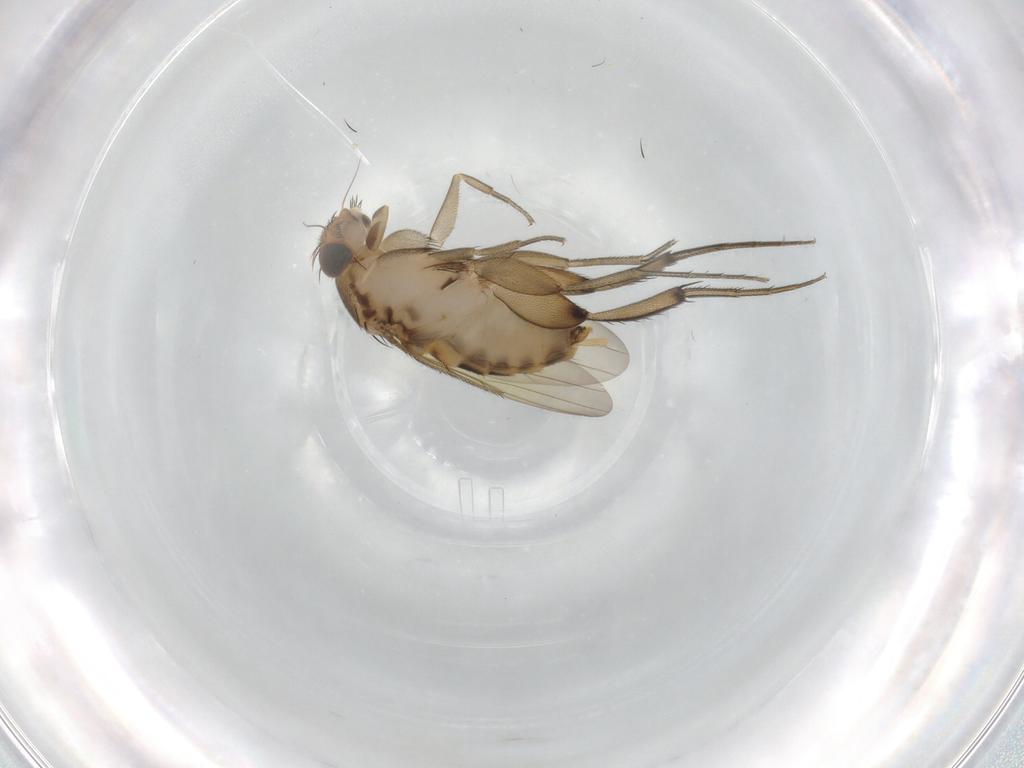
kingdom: Animalia
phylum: Arthropoda
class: Insecta
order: Diptera
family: Phoridae
